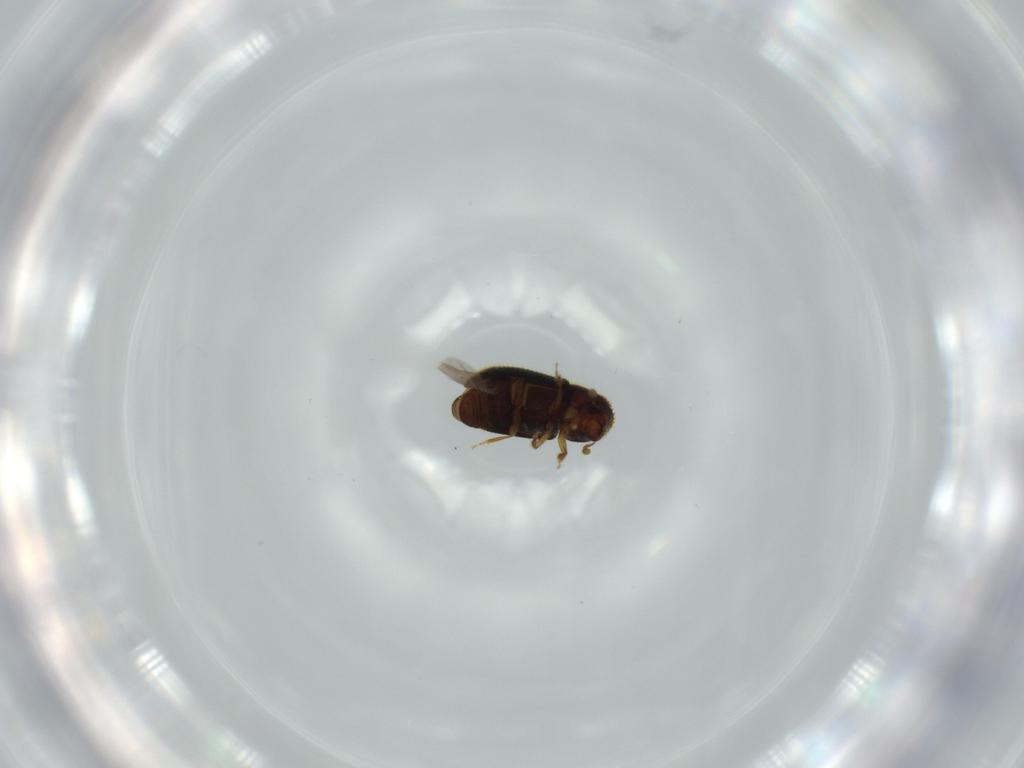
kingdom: Animalia
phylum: Arthropoda
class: Insecta
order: Coleoptera
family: Curculionidae
